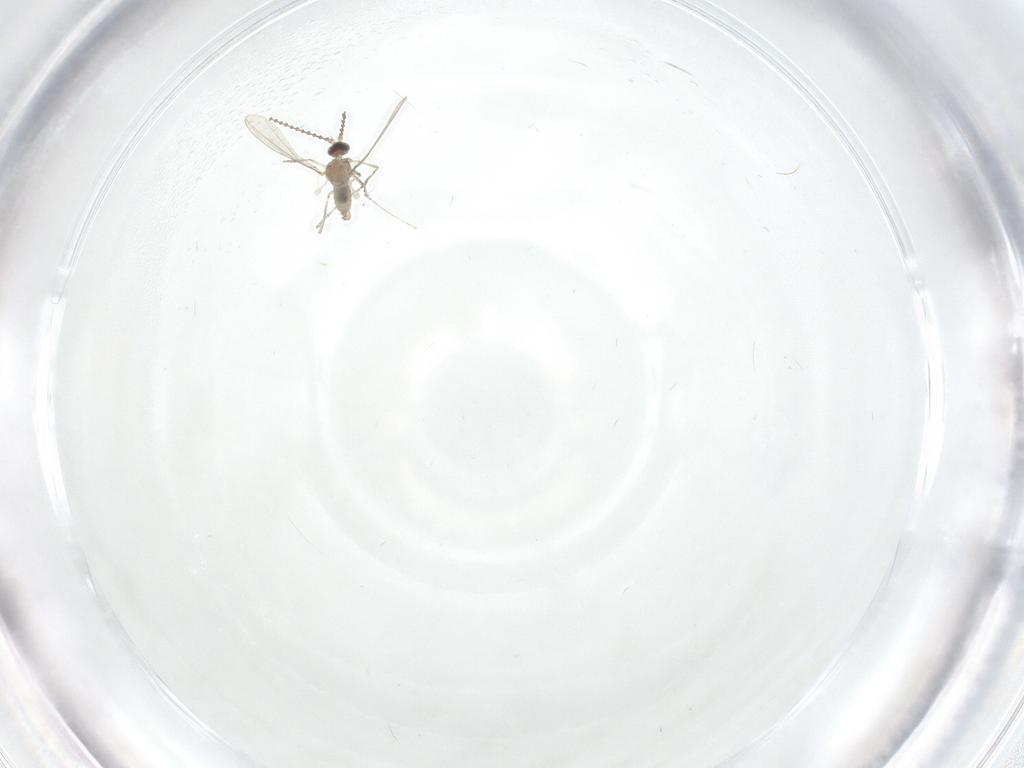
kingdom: Animalia
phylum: Arthropoda
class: Insecta
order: Diptera
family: Cecidomyiidae
